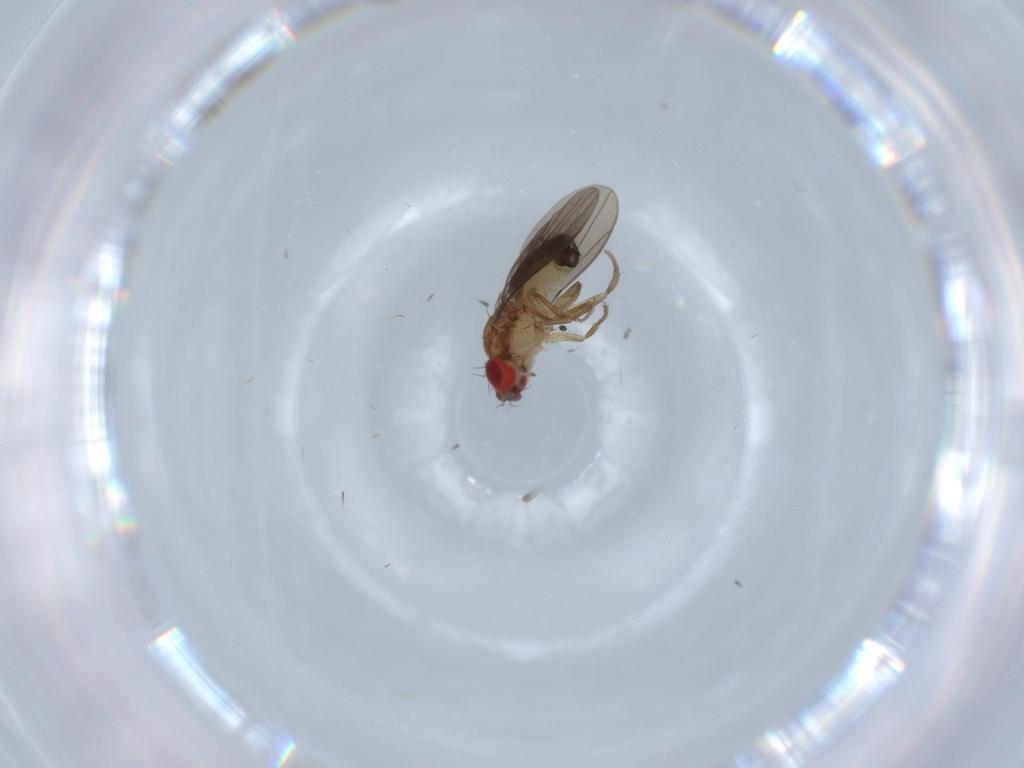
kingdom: Animalia
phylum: Arthropoda
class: Insecta
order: Diptera
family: Drosophilidae
